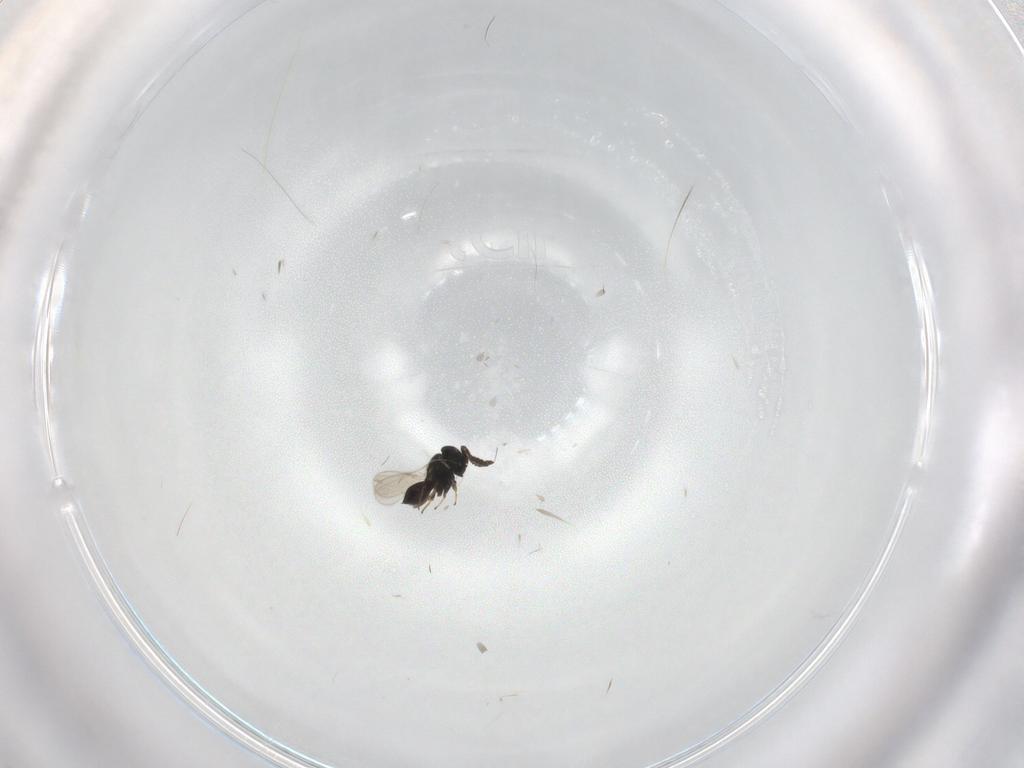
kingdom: Animalia
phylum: Arthropoda
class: Insecta
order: Hymenoptera
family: Scelionidae
